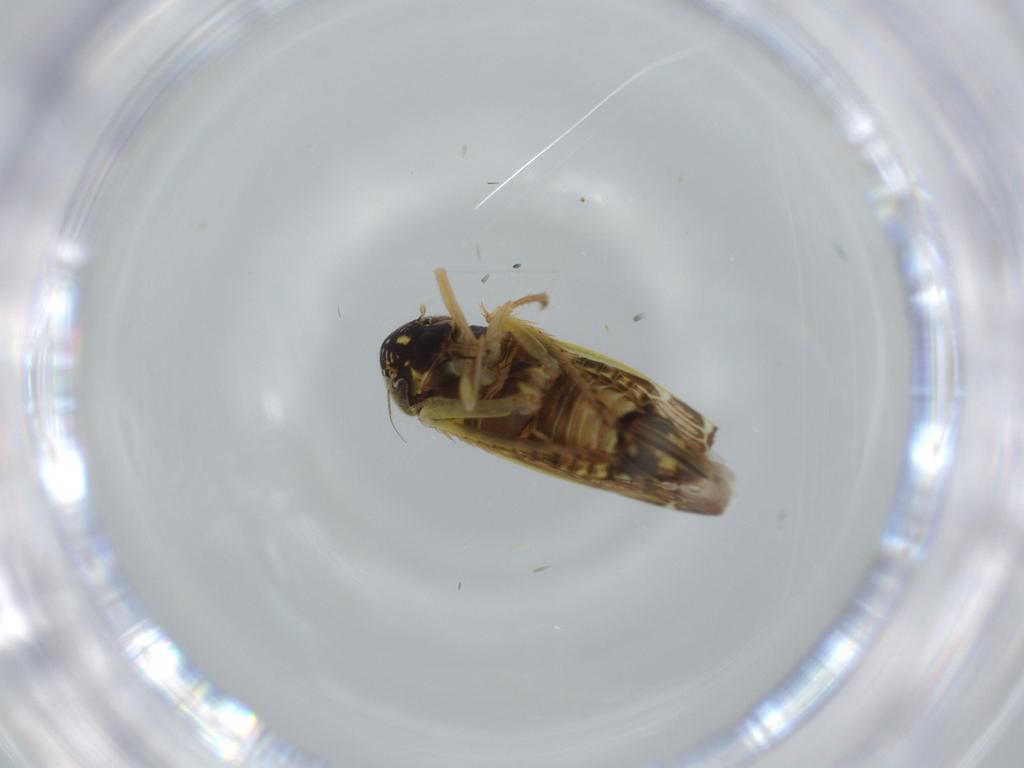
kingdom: Animalia
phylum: Arthropoda
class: Insecta
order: Hemiptera
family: Cicadellidae
